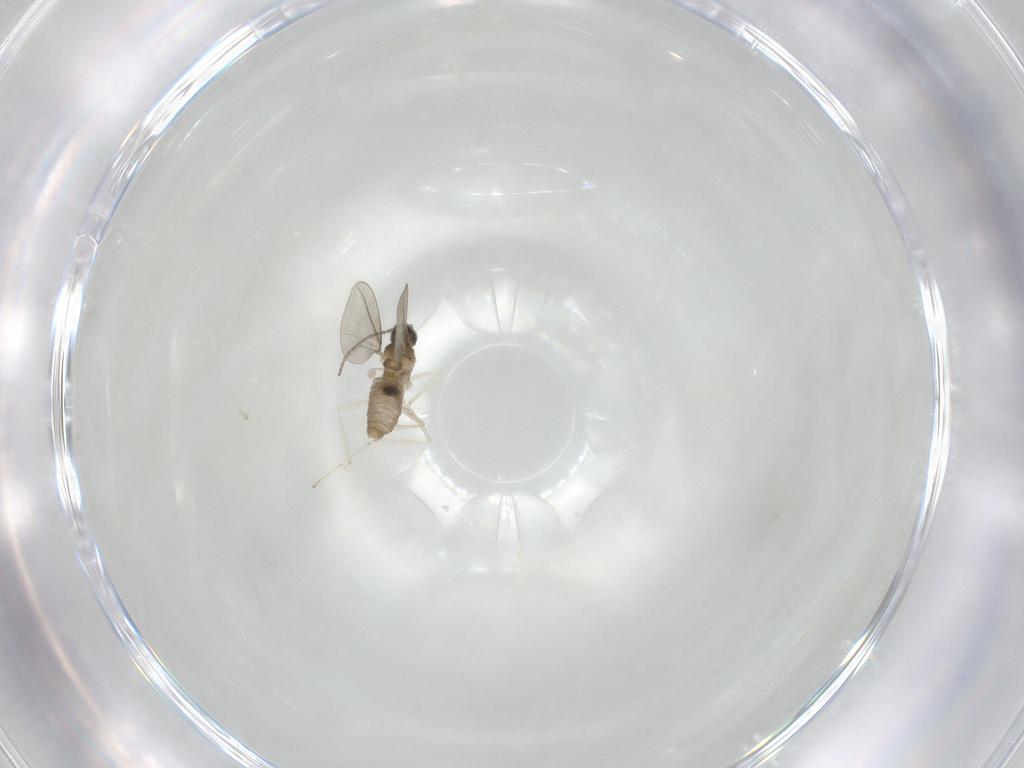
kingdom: Animalia
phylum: Arthropoda
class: Insecta
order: Diptera
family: Cecidomyiidae
